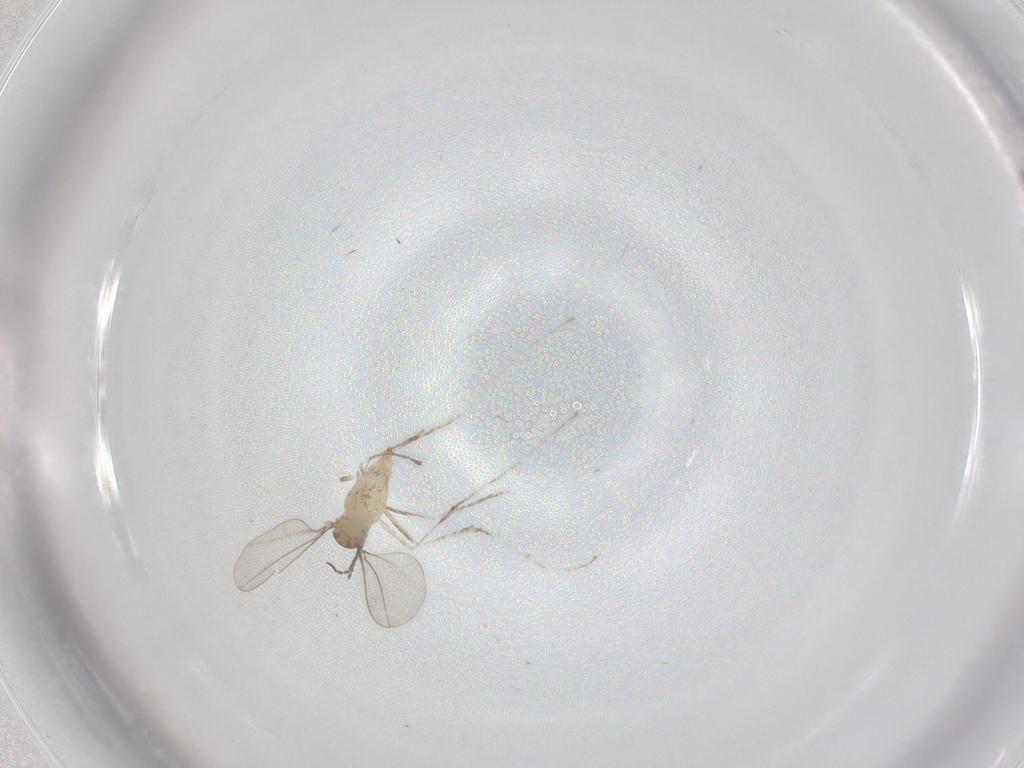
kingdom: Animalia
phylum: Arthropoda
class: Insecta
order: Diptera
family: Cecidomyiidae
